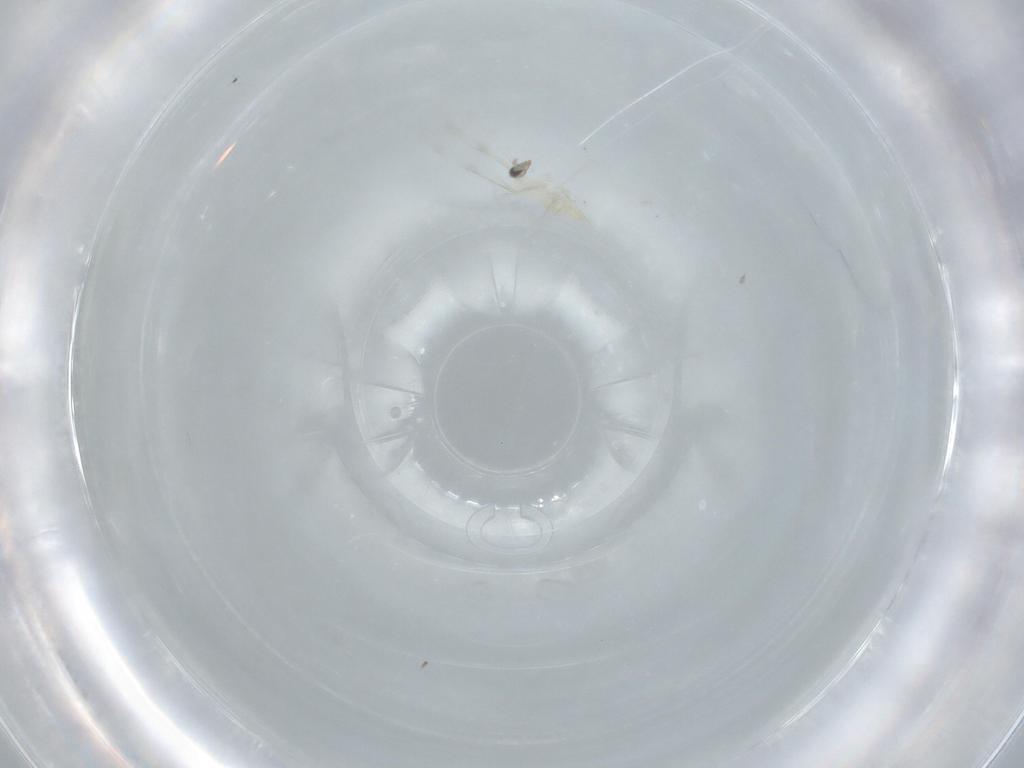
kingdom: Animalia
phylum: Arthropoda
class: Insecta
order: Diptera
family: Cecidomyiidae
